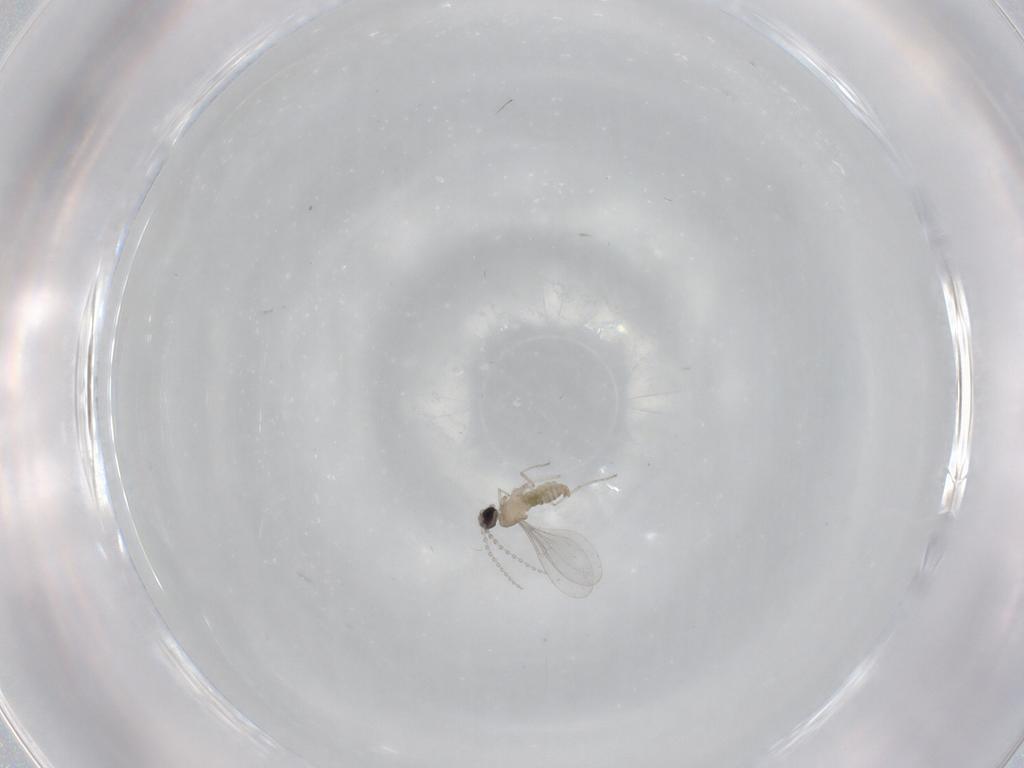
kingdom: Animalia
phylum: Arthropoda
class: Insecta
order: Diptera
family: Cecidomyiidae
